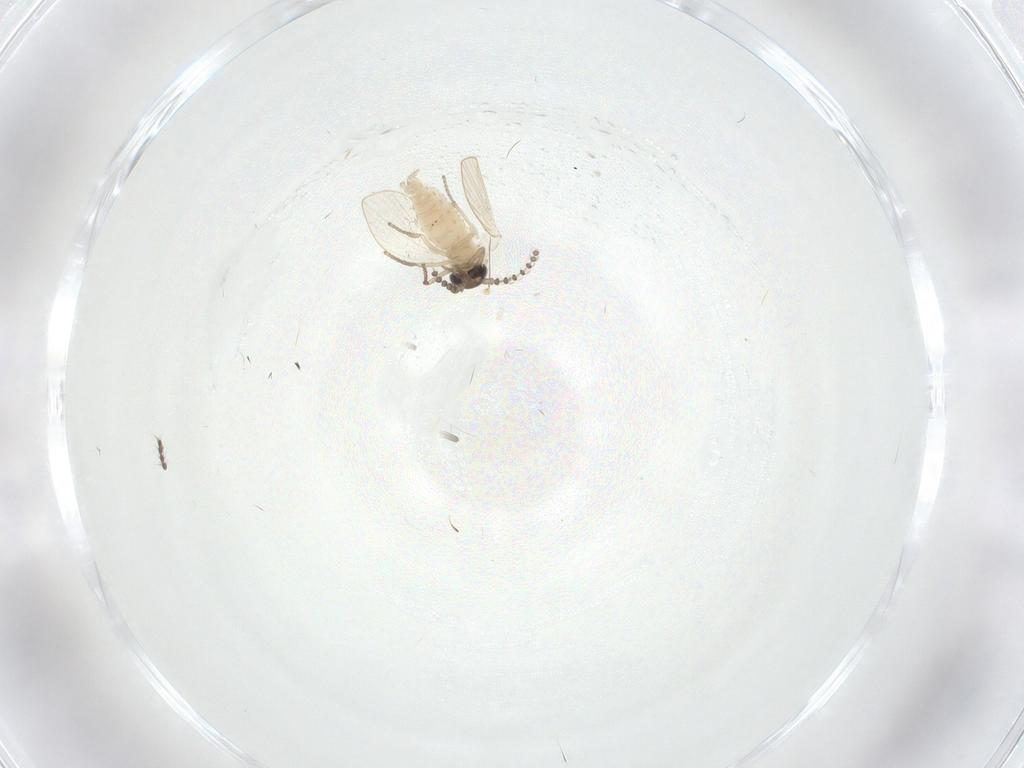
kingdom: Animalia
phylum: Arthropoda
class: Insecta
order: Diptera
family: Psychodidae
